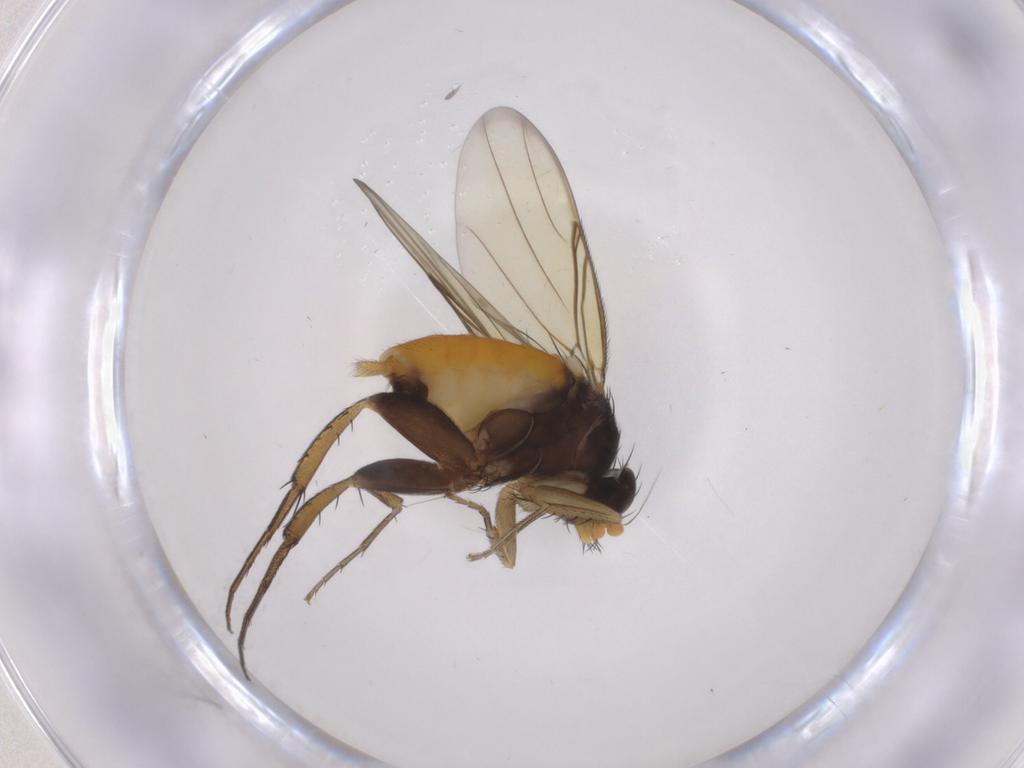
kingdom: Animalia
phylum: Arthropoda
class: Insecta
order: Diptera
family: Phoridae
